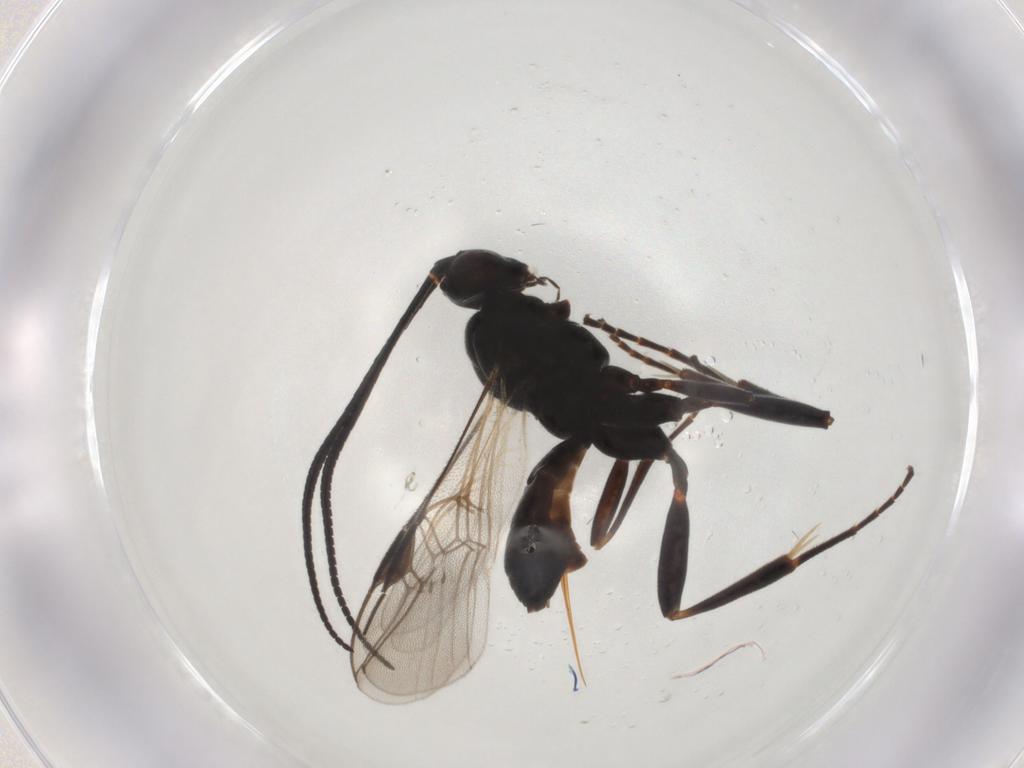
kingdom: Animalia
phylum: Arthropoda
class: Insecta
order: Hymenoptera
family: Braconidae
